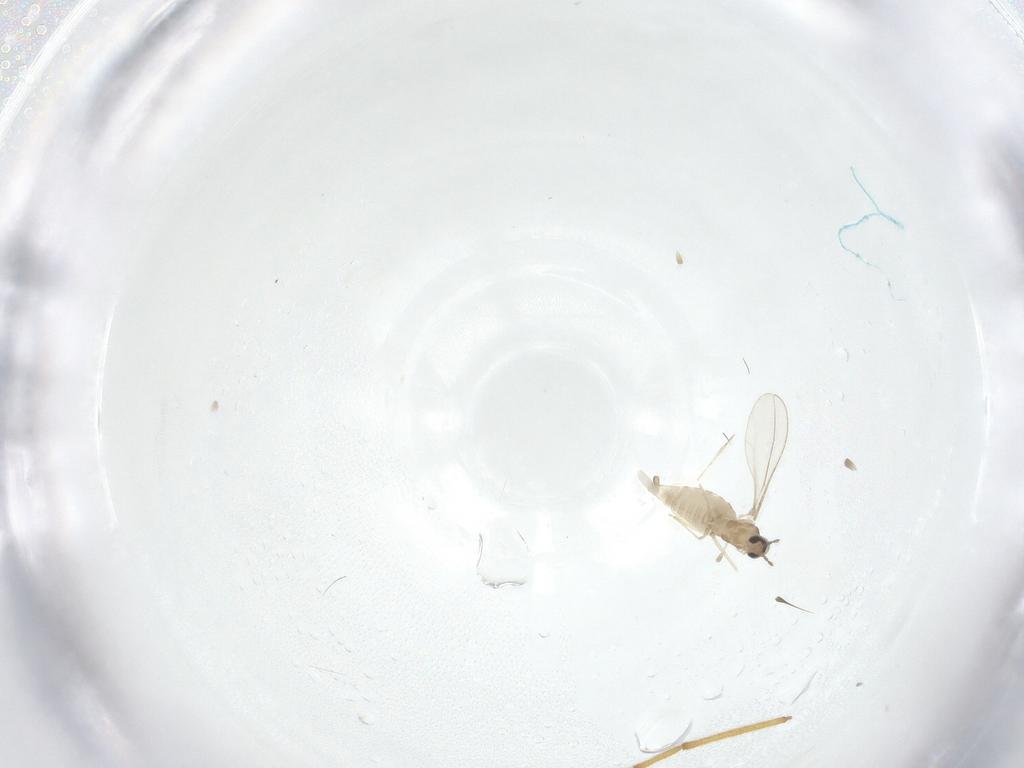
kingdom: Animalia
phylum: Arthropoda
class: Insecta
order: Diptera
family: Cecidomyiidae
